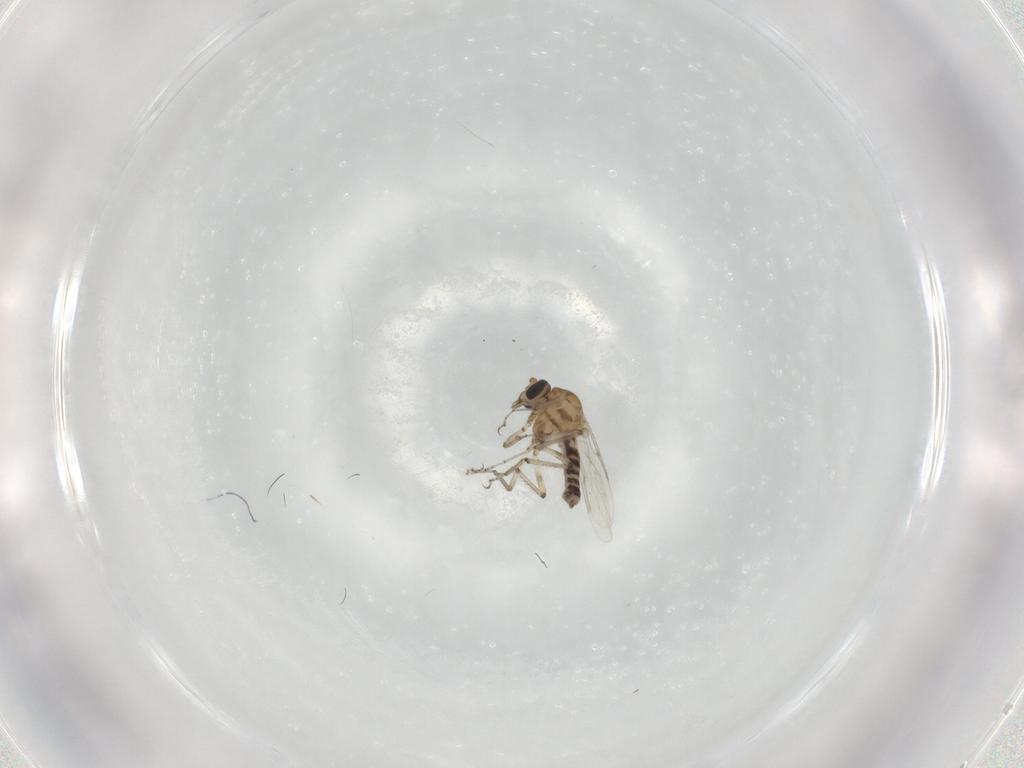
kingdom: Animalia
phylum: Arthropoda
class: Insecta
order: Diptera
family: Ceratopogonidae
